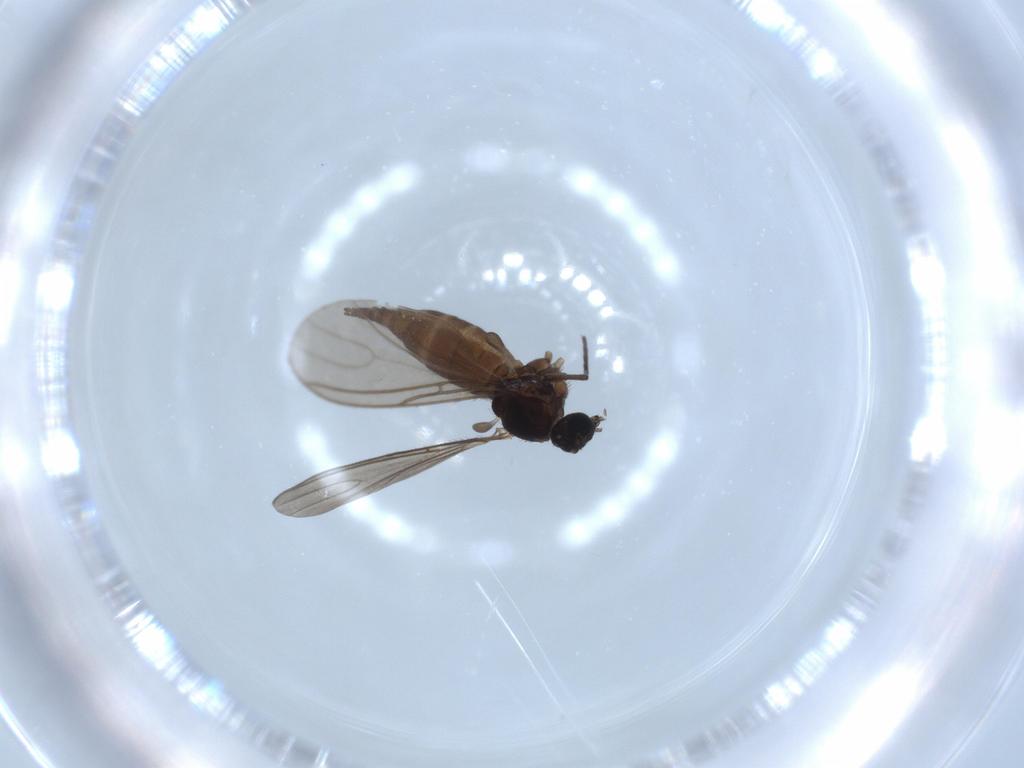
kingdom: Animalia
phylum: Arthropoda
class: Insecta
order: Diptera
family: Sciaridae
